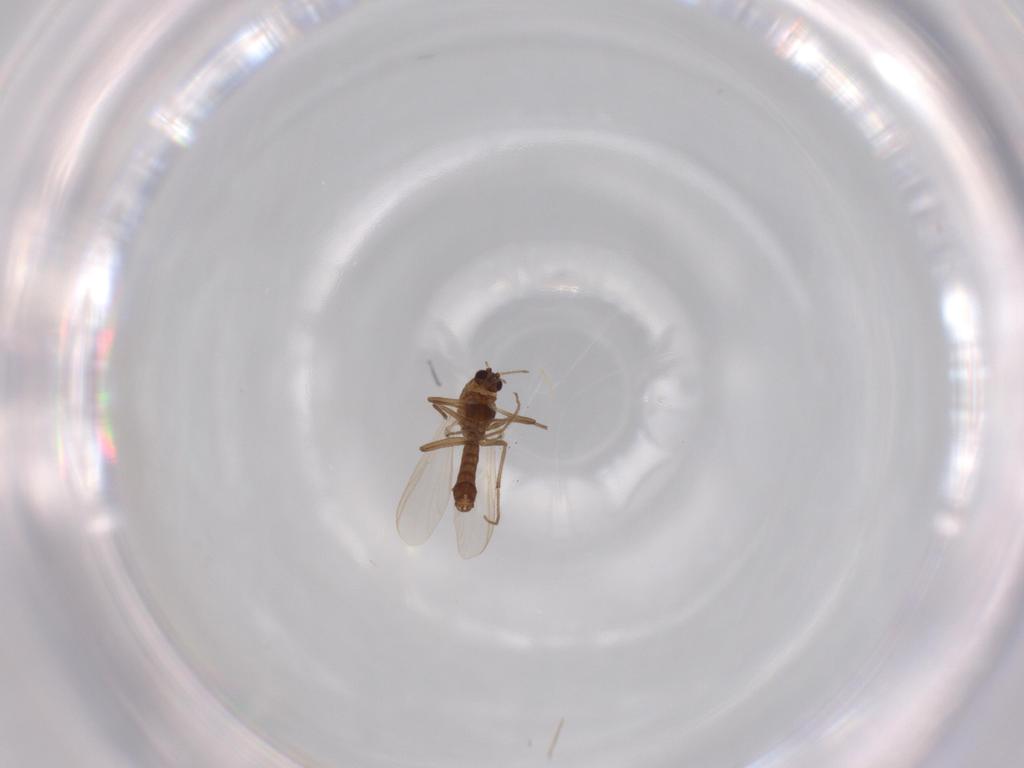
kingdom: Animalia
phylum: Arthropoda
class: Insecta
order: Diptera
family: Chironomidae
